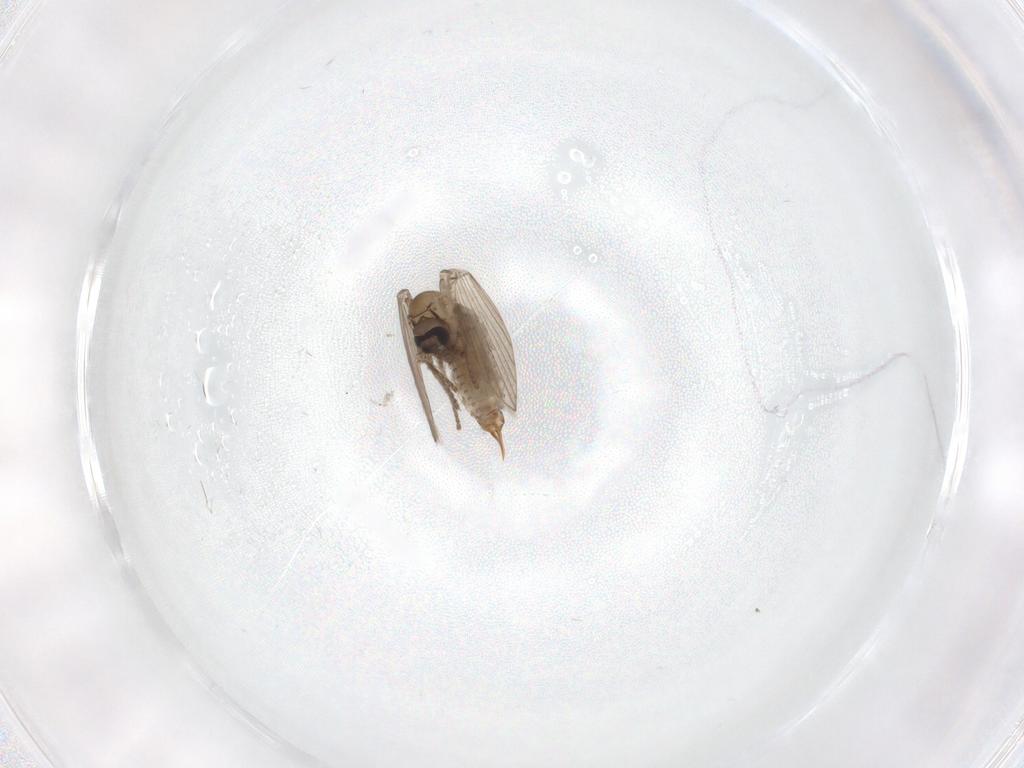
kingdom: Animalia
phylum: Arthropoda
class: Insecta
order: Diptera
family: Psychodidae
